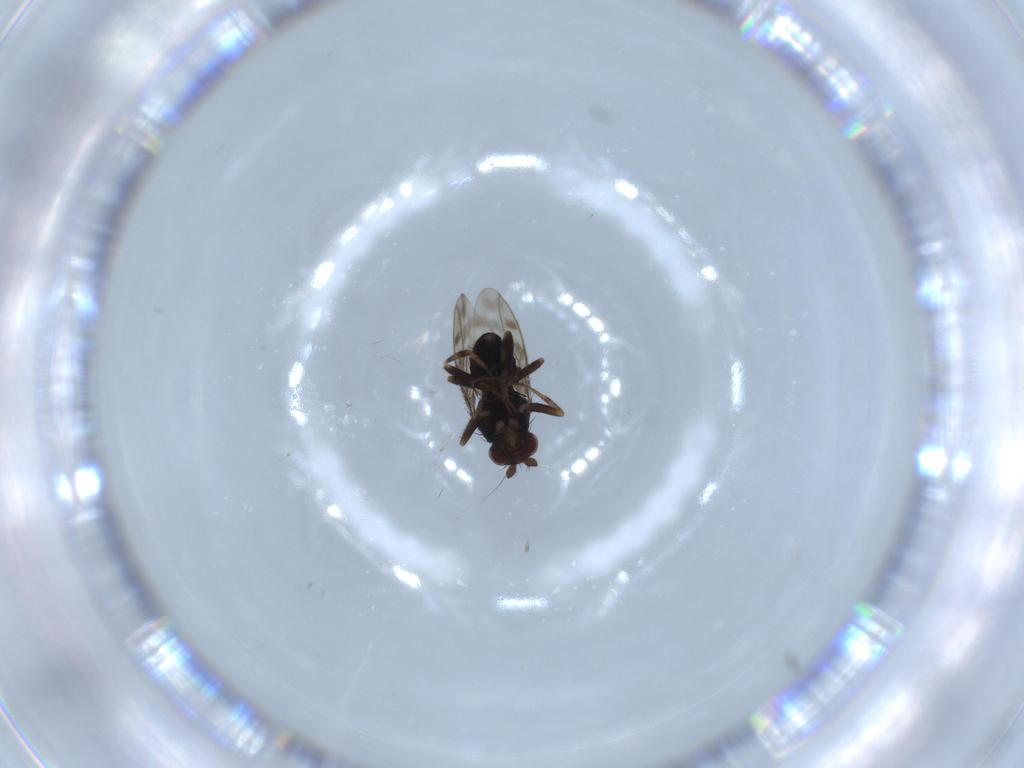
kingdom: Animalia
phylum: Arthropoda
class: Insecta
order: Diptera
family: Sphaeroceridae
